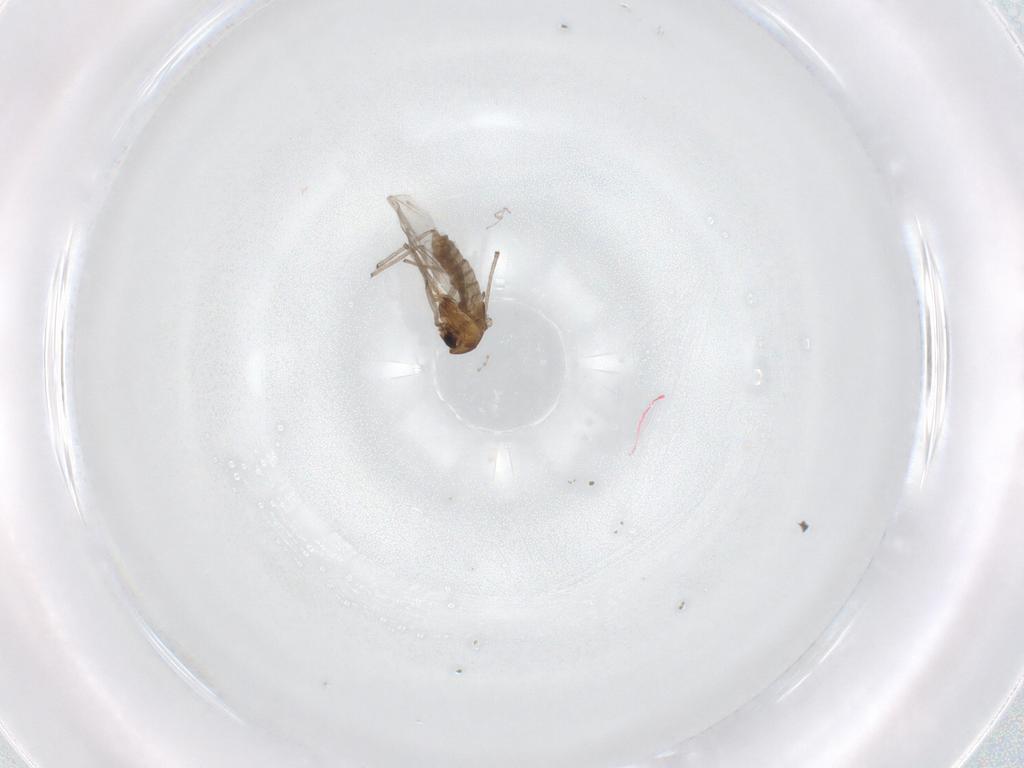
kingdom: Animalia
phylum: Arthropoda
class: Insecta
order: Diptera
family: Chironomidae
